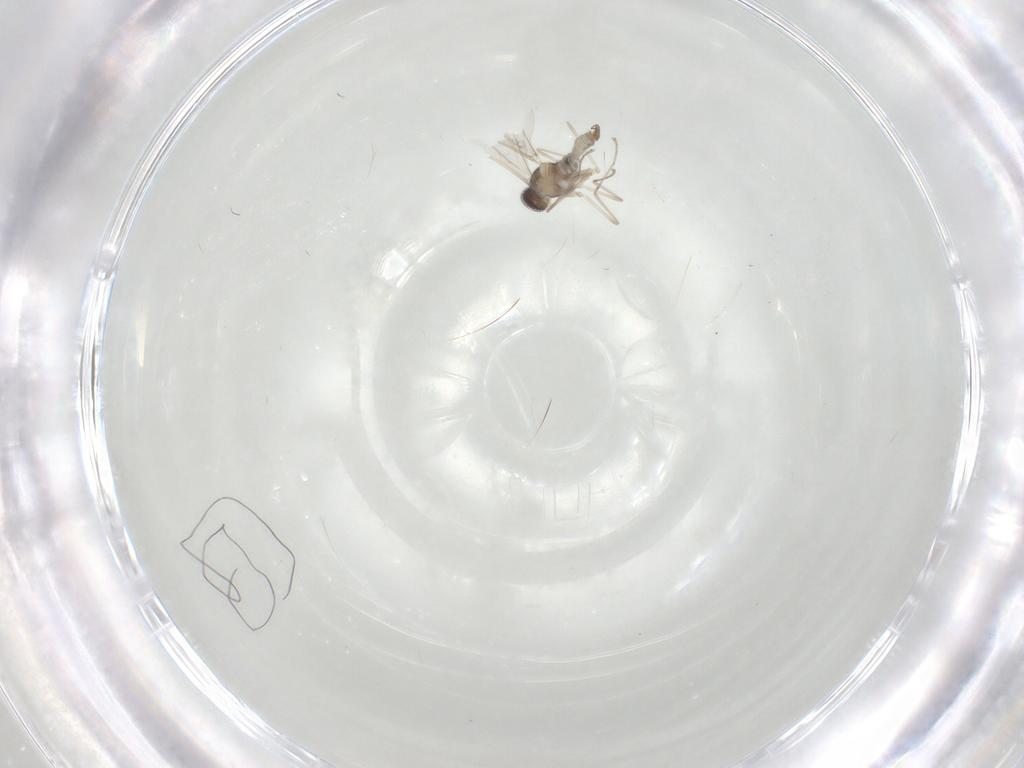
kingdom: Animalia
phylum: Arthropoda
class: Insecta
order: Diptera
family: Cecidomyiidae
